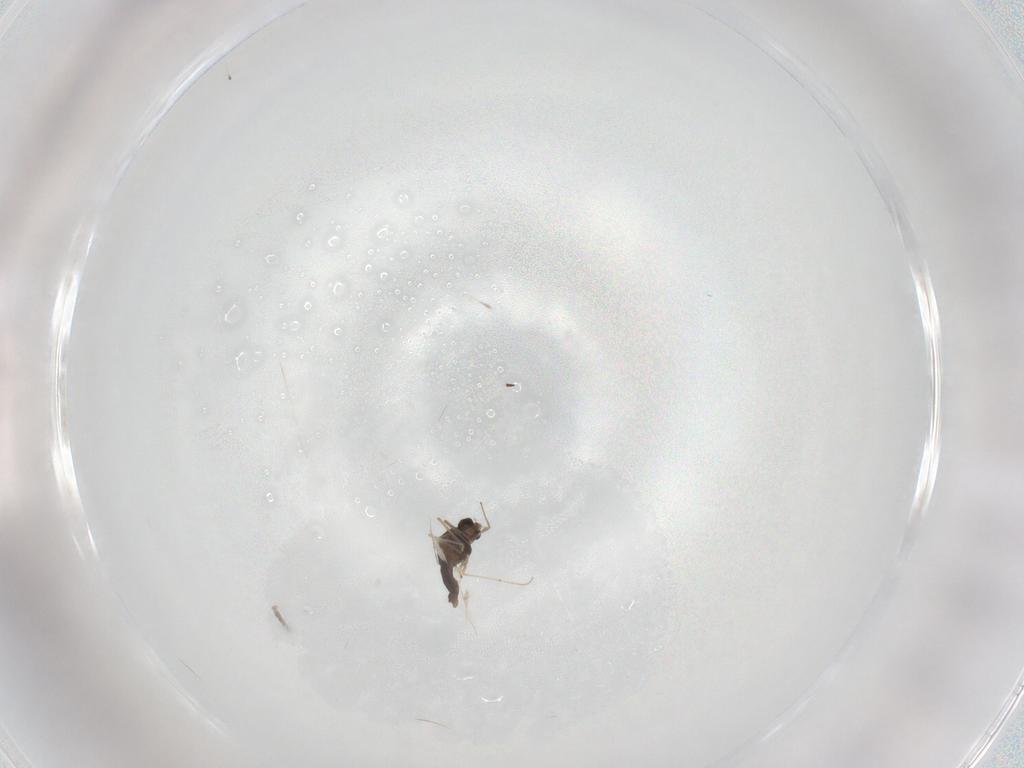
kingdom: Animalia
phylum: Arthropoda
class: Insecta
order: Diptera
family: Chironomidae
